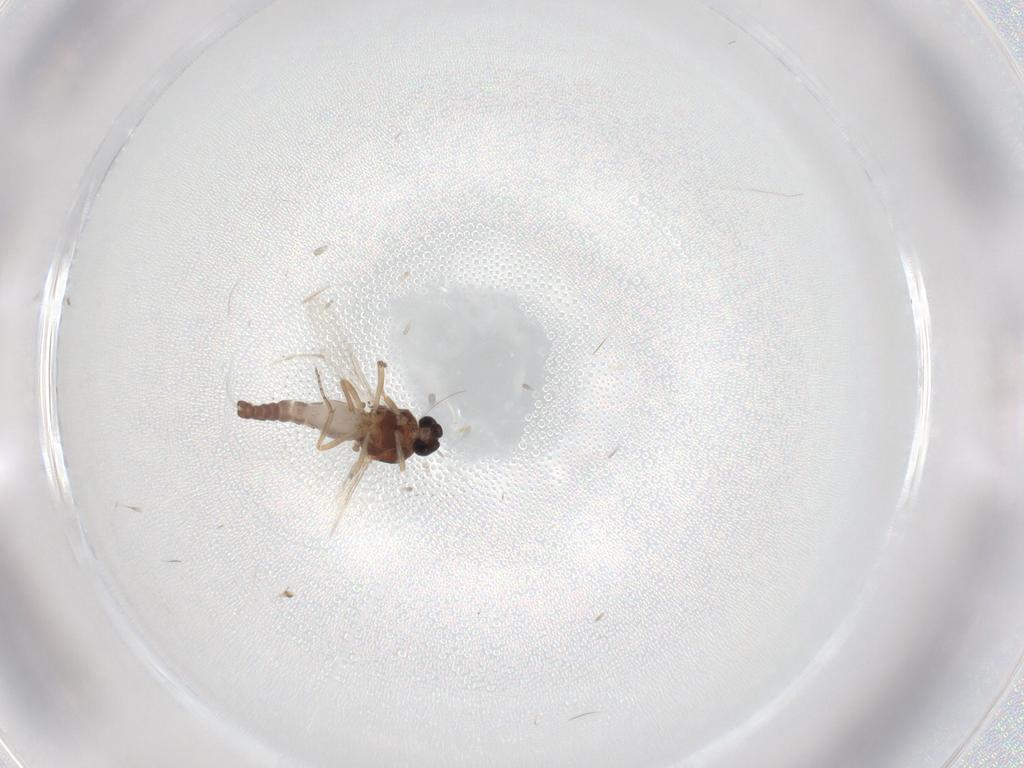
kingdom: Animalia
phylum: Arthropoda
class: Insecta
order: Diptera
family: Ceratopogonidae
